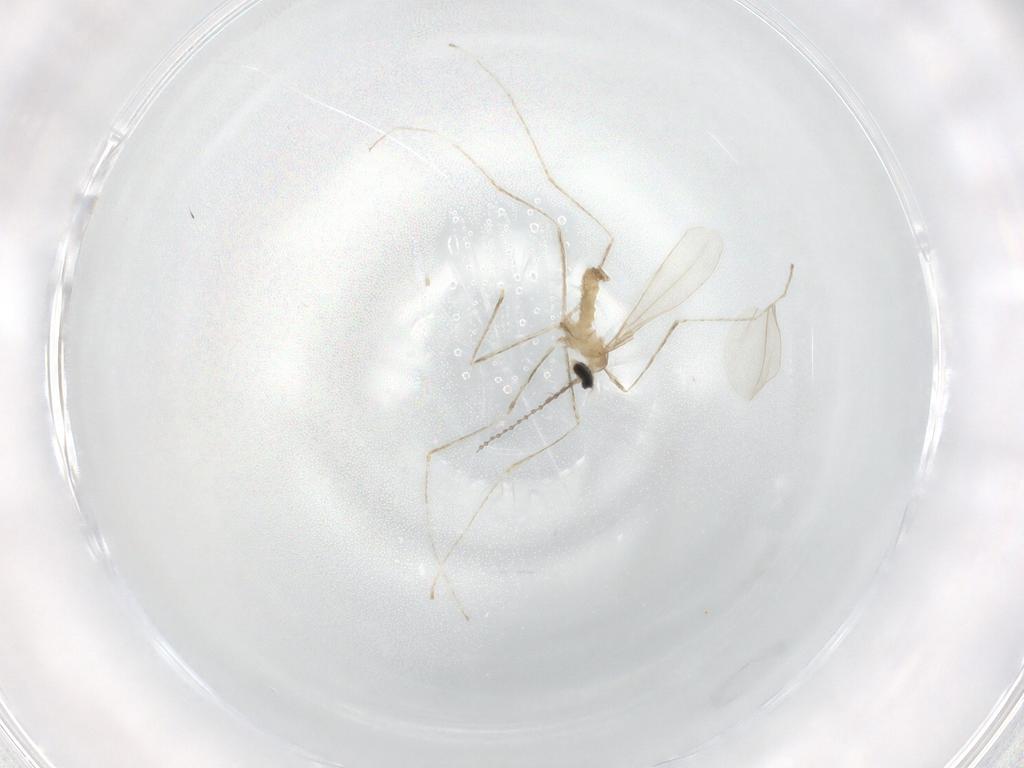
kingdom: Animalia
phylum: Arthropoda
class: Insecta
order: Diptera
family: Cecidomyiidae
